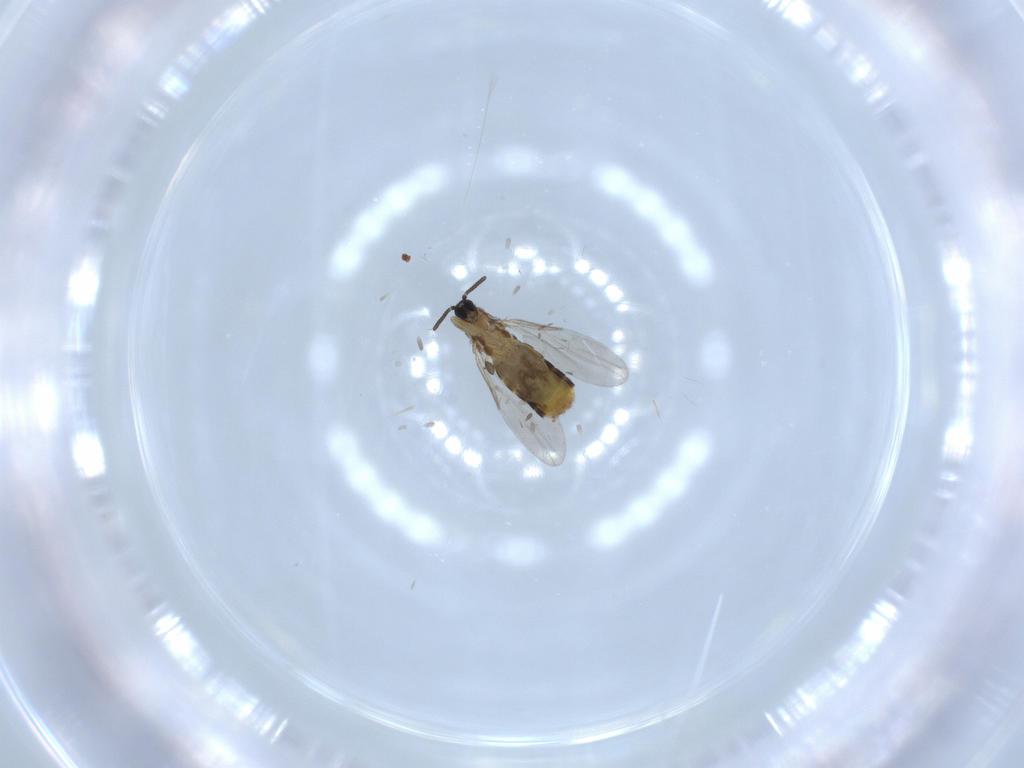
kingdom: Animalia
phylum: Arthropoda
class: Insecta
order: Diptera
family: Scatopsidae
